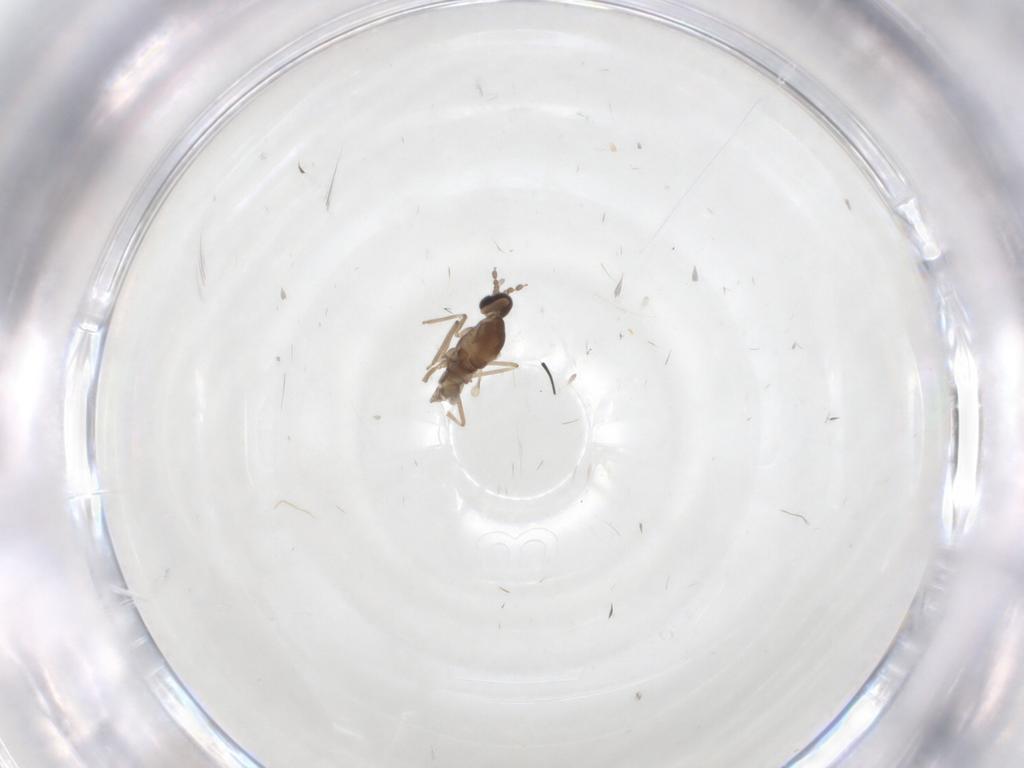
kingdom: Animalia
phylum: Arthropoda
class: Insecta
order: Diptera
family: Cecidomyiidae
